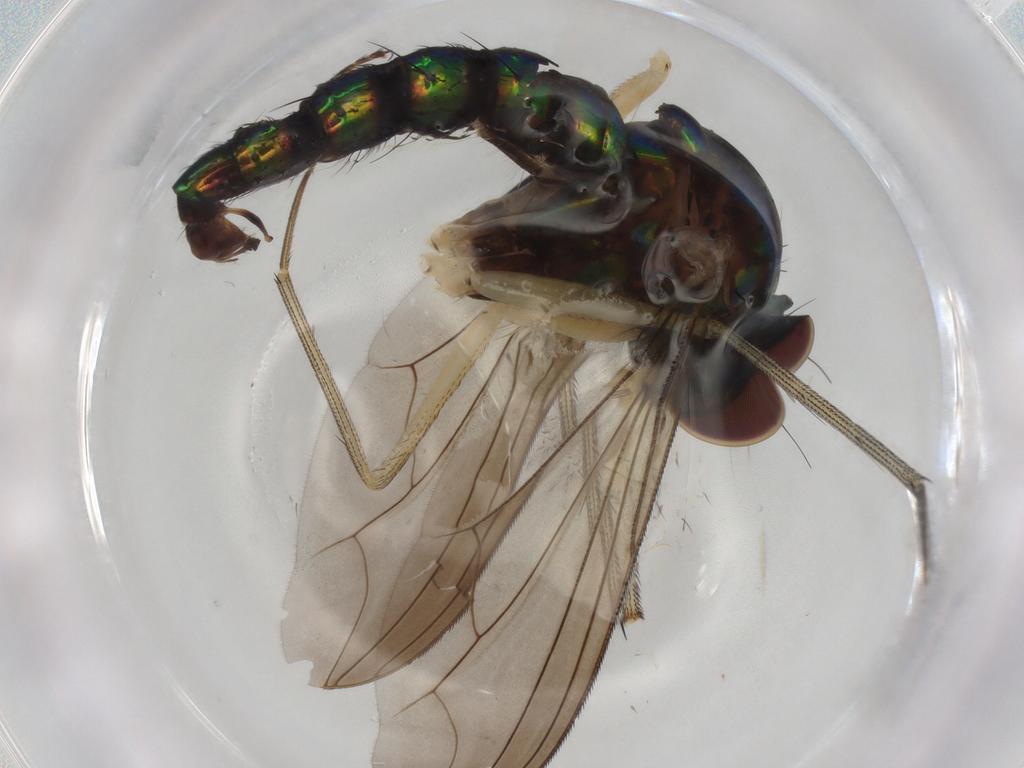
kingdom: Animalia
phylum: Arthropoda
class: Insecta
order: Diptera
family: Dolichopodidae
